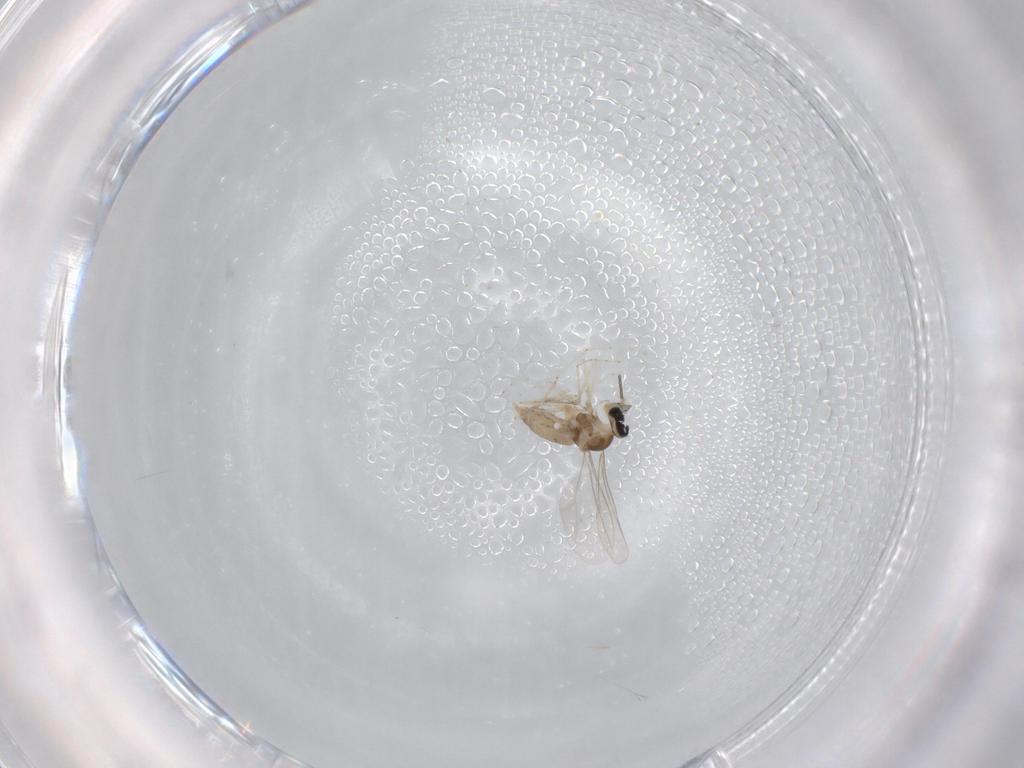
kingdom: Animalia
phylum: Arthropoda
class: Insecta
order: Diptera
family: Cecidomyiidae
